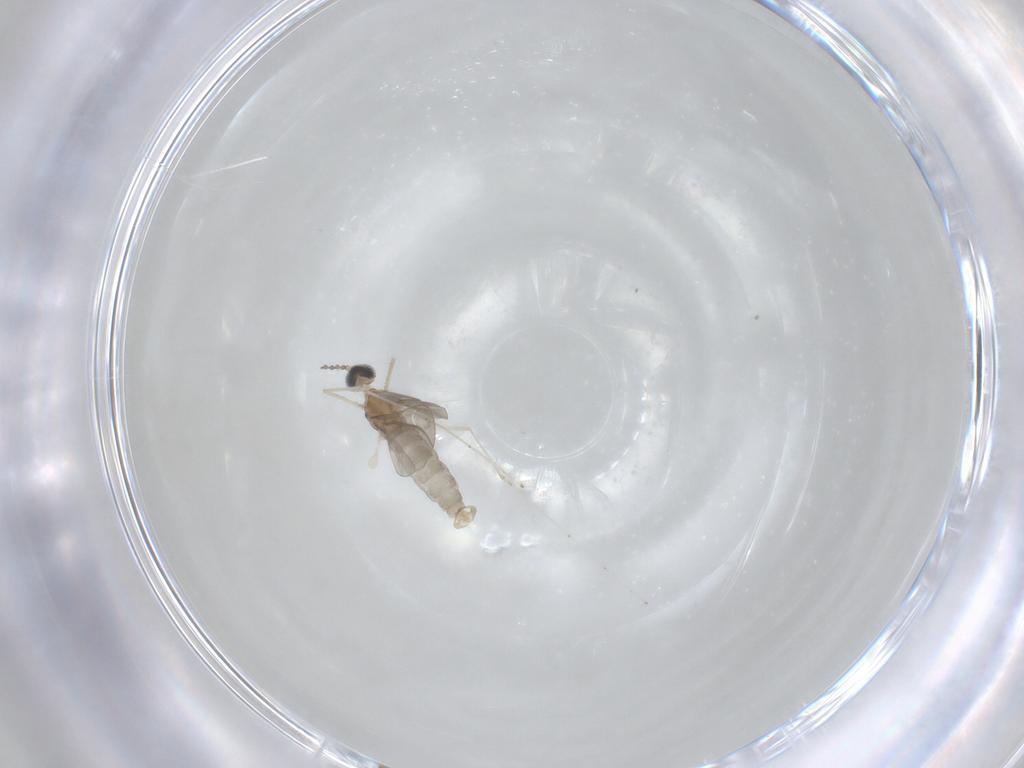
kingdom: Animalia
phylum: Arthropoda
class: Insecta
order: Diptera
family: Cecidomyiidae
